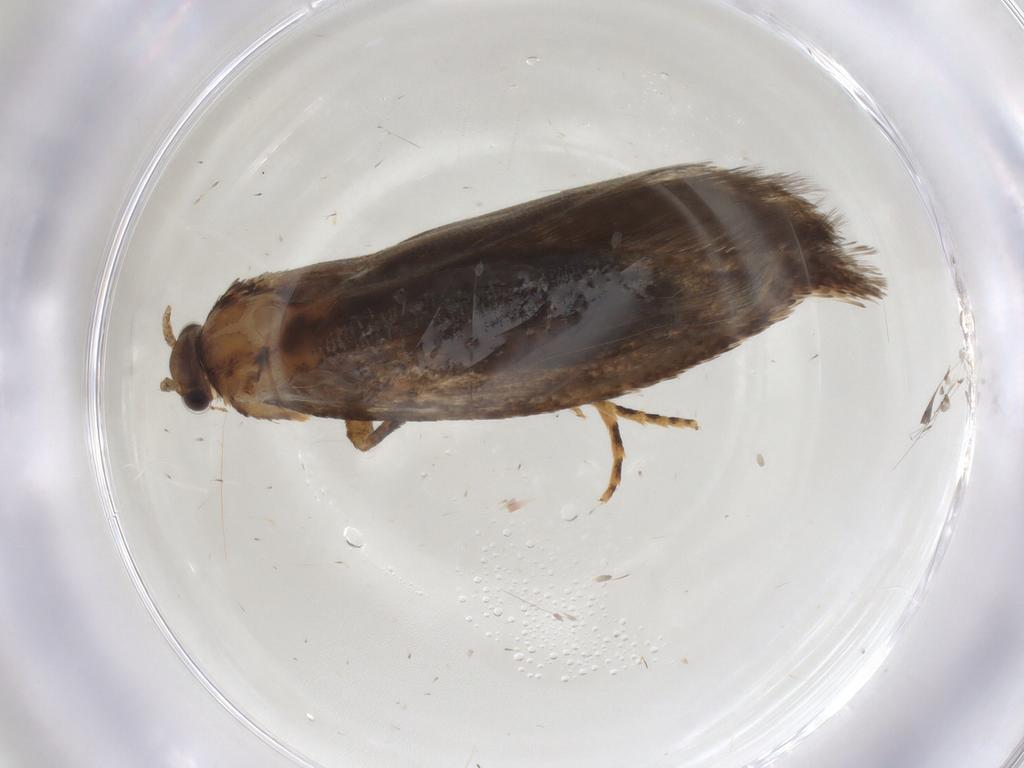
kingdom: Animalia
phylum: Arthropoda
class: Insecta
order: Lepidoptera
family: Crambidae
